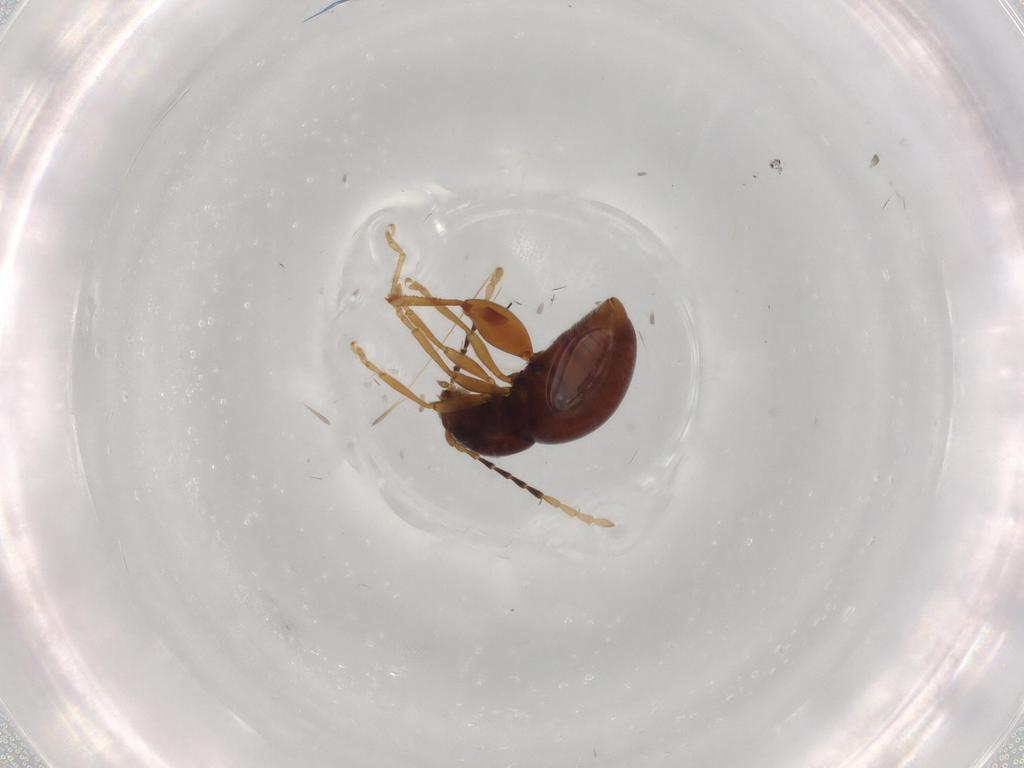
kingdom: Animalia
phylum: Arthropoda
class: Insecta
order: Coleoptera
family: Chrysomelidae
